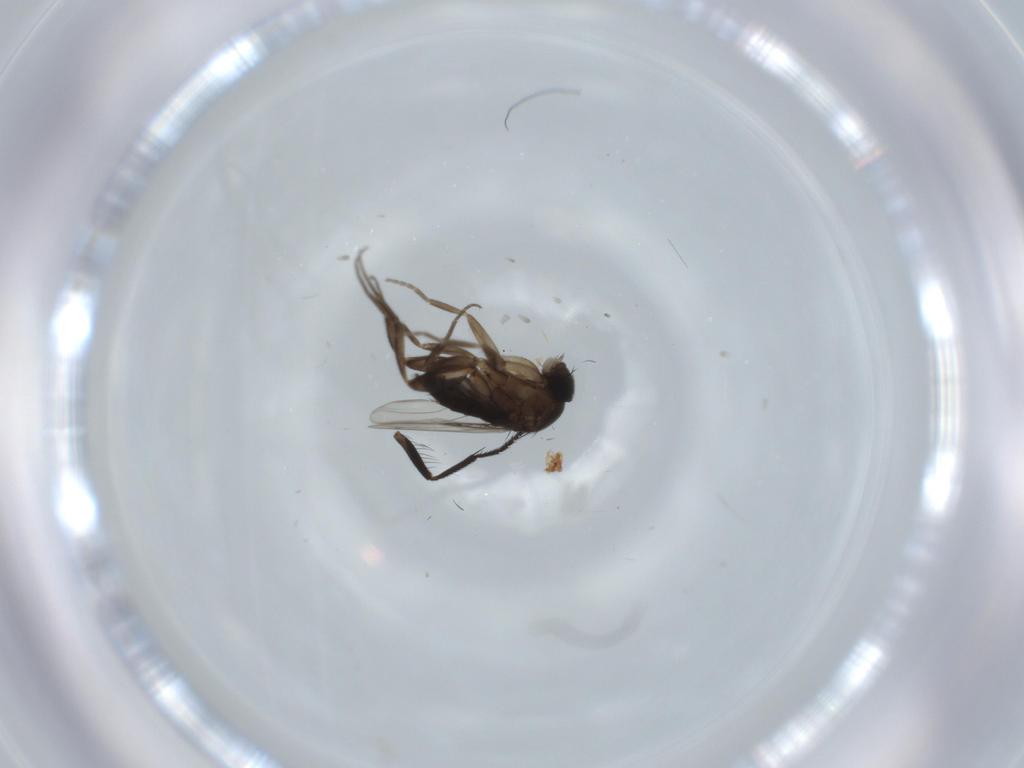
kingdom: Animalia
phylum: Arthropoda
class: Insecta
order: Diptera
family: Phoridae
